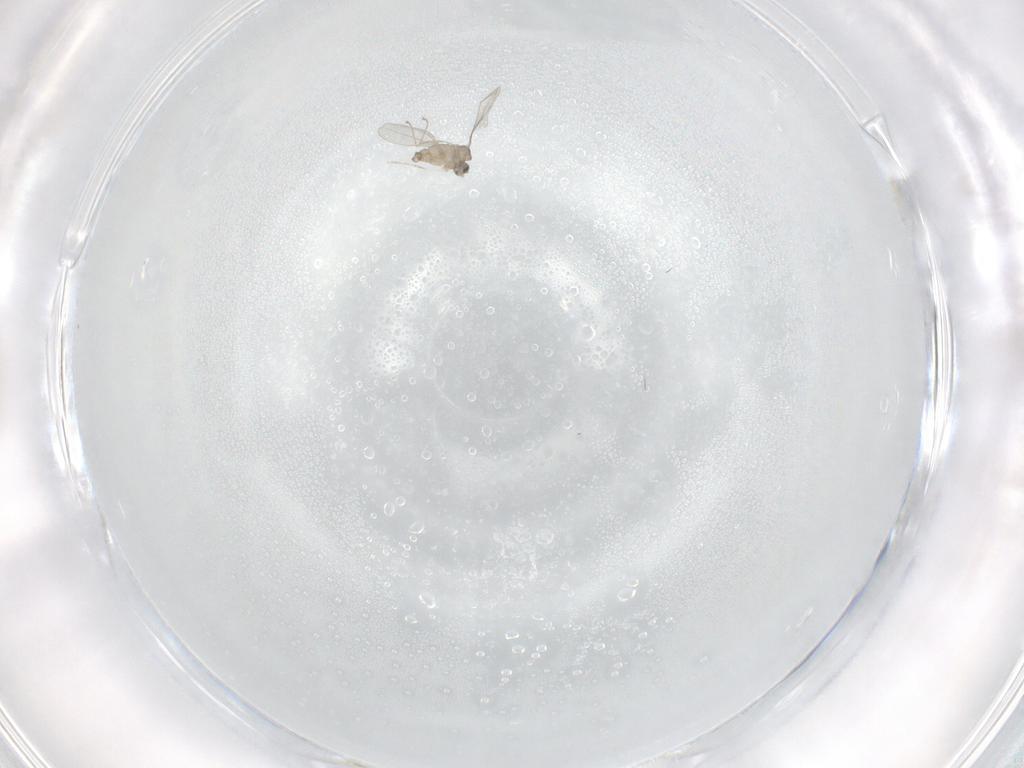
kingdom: Animalia
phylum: Arthropoda
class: Insecta
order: Diptera
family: Cecidomyiidae
